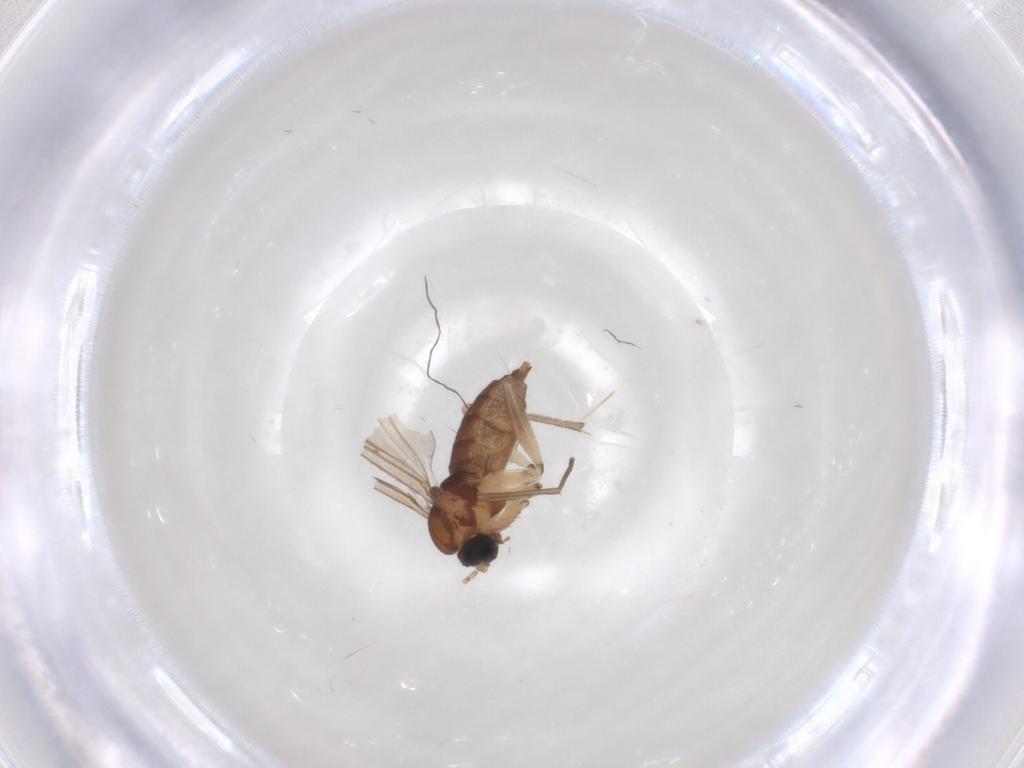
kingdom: Animalia
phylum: Arthropoda
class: Insecta
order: Diptera
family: Sciaridae
